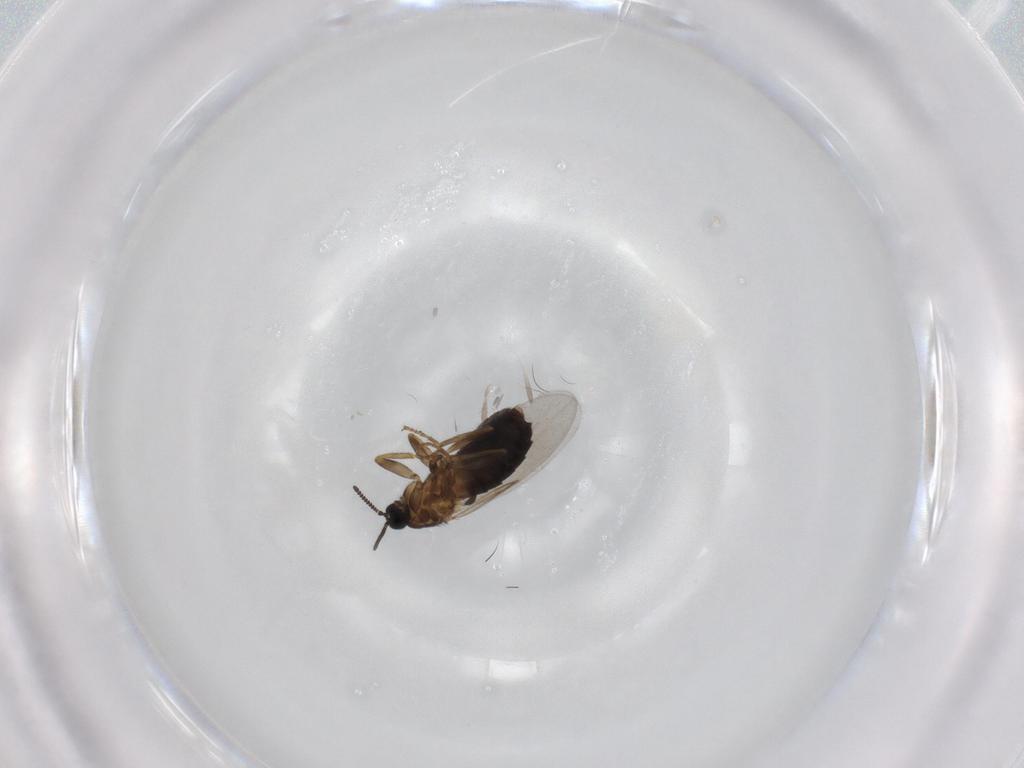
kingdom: Animalia
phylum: Arthropoda
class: Insecta
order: Diptera
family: Scatopsidae
